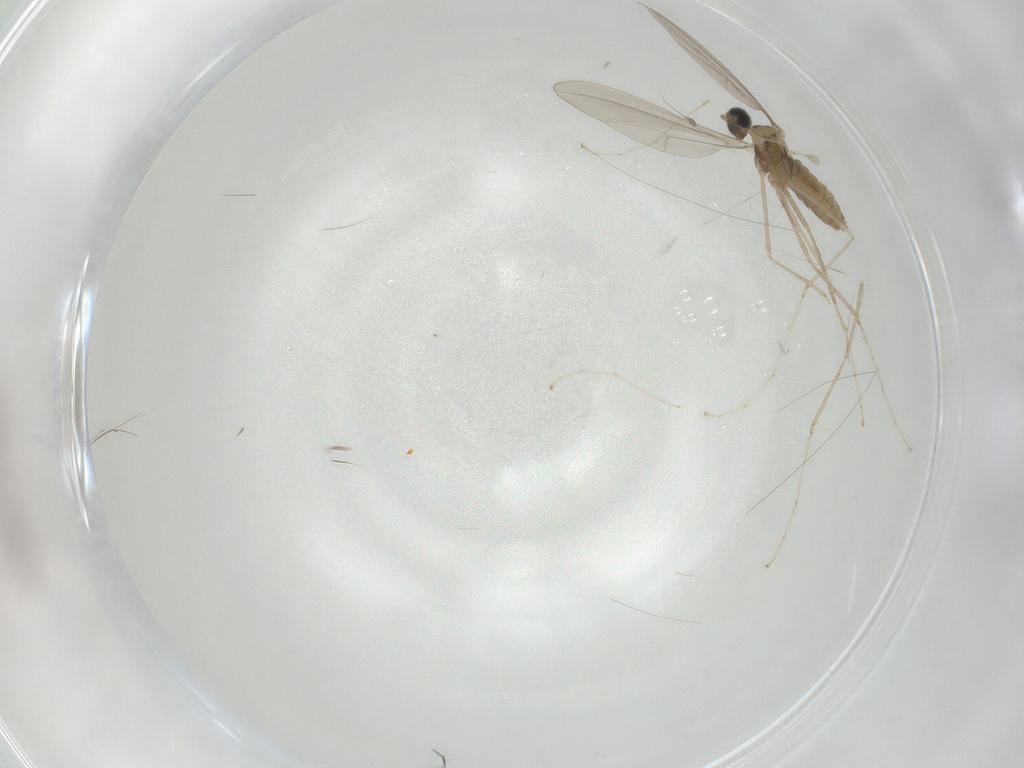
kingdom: Animalia
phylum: Arthropoda
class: Insecta
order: Diptera
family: Cecidomyiidae
